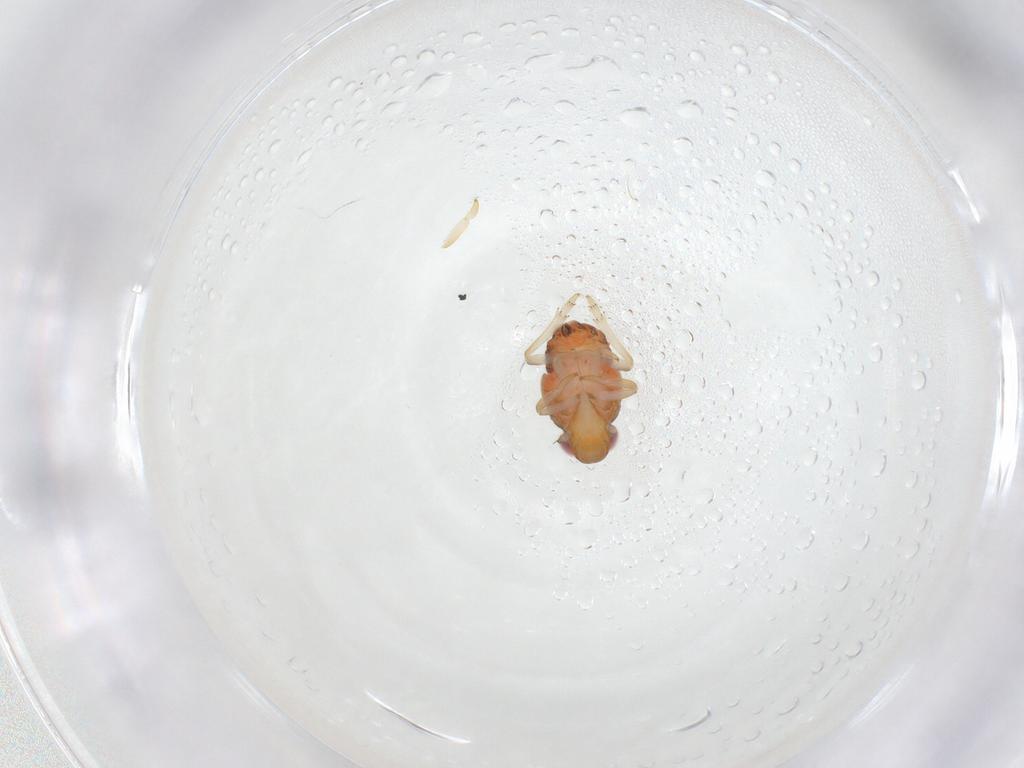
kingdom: Animalia
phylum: Arthropoda
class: Insecta
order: Hemiptera
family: Issidae
